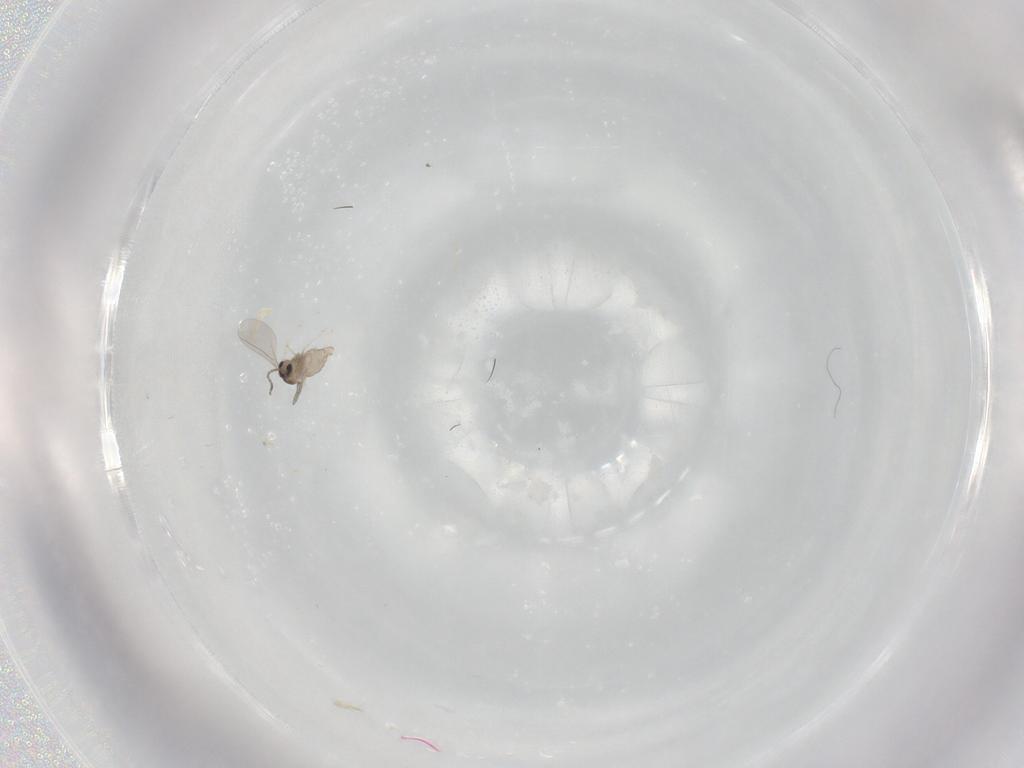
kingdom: Animalia
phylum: Arthropoda
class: Insecta
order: Diptera
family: Cecidomyiidae
